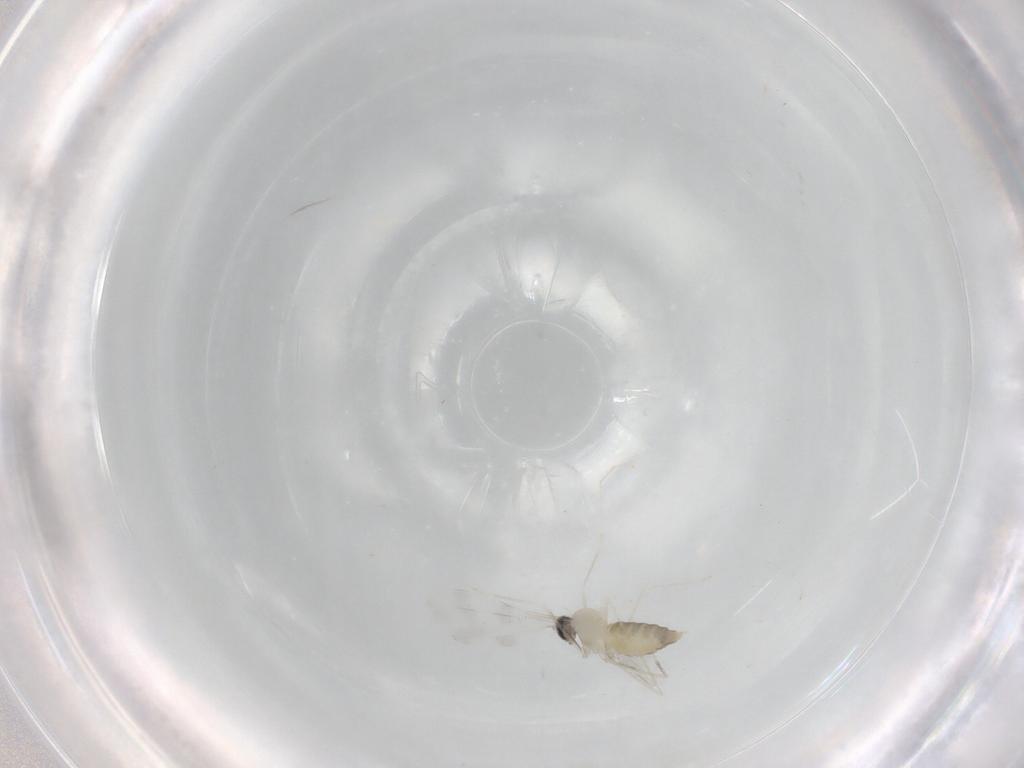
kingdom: Animalia
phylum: Arthropoda
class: Insecta
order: Diptera
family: Cecidomyiidae
